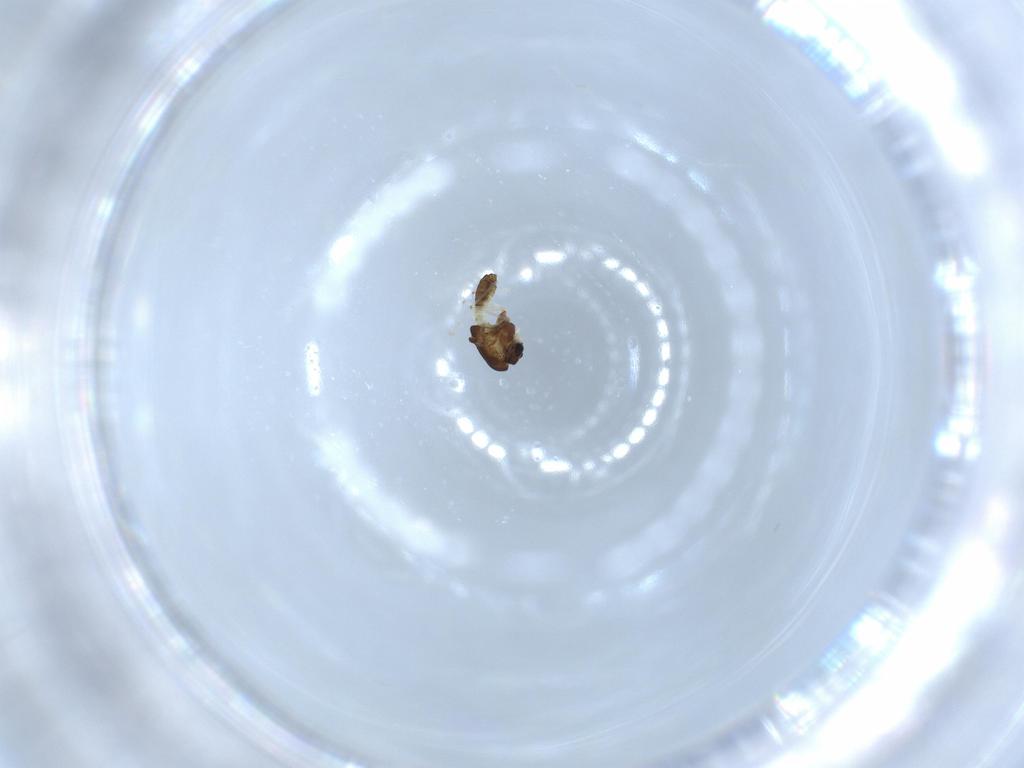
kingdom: Animalia
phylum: Arthropoda
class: Insecta
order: Diptera
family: Chironomidae
